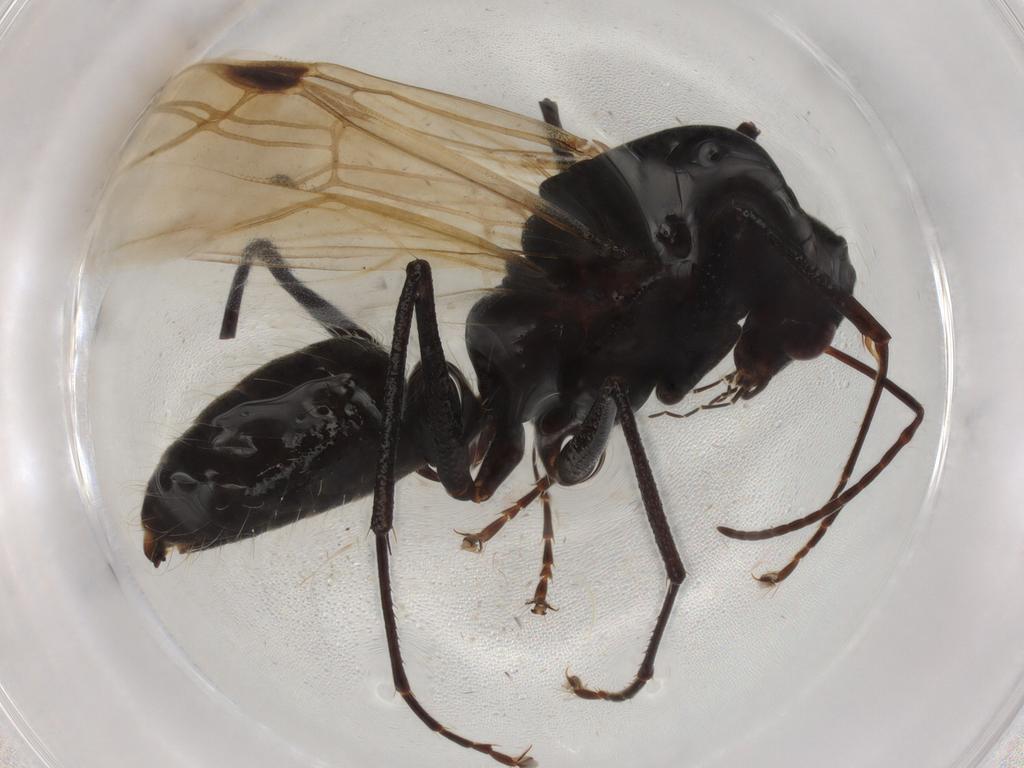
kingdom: Animalia
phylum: Arthropoda
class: Insecta
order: Hymenoptera
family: Formicidae
